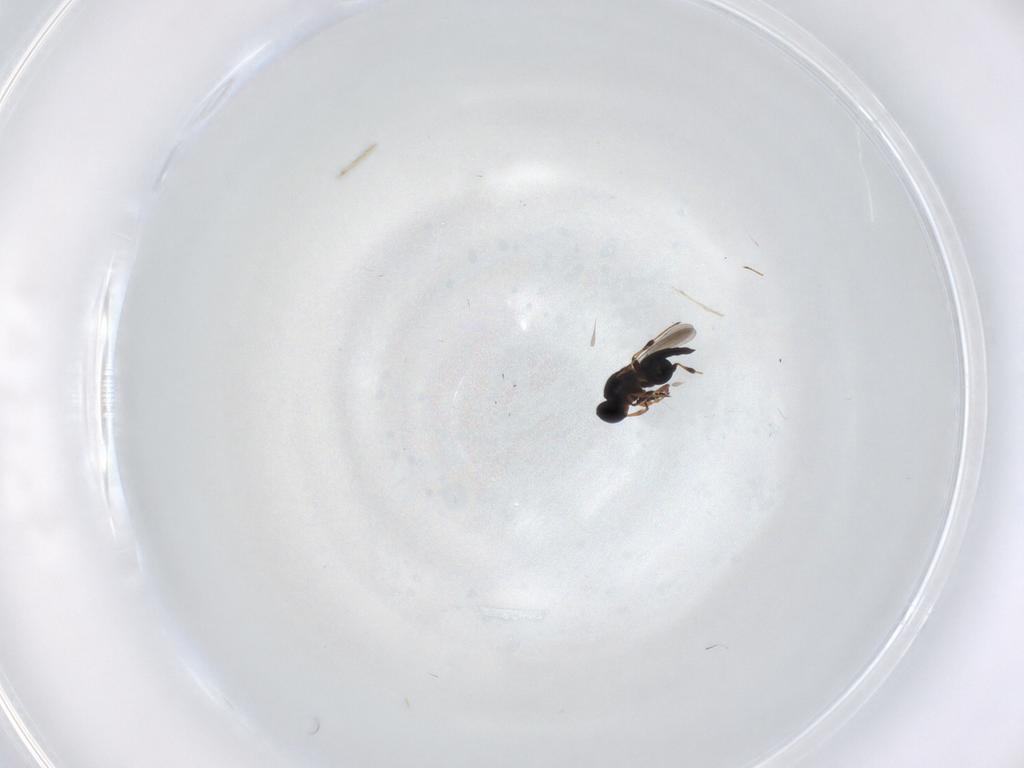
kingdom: Animalia
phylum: Arthropoda
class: Insecta
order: Hymenoptera
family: Platygastridae
